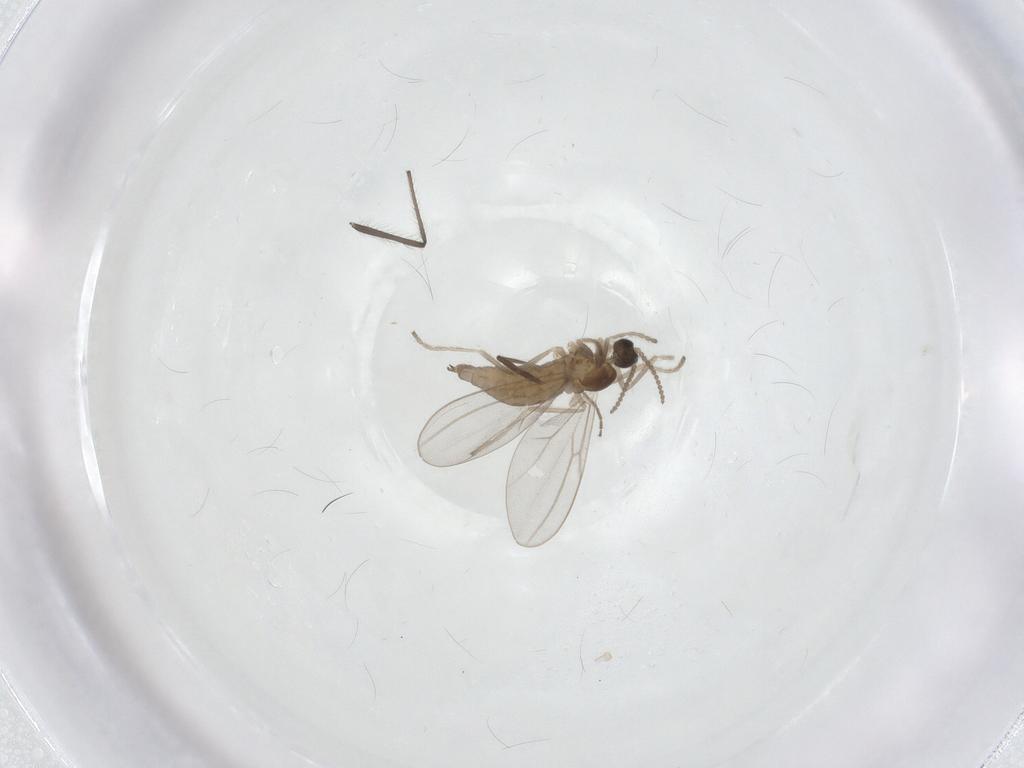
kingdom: Animalia
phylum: Arthropoda
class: Insecta
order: Diptera
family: Cecidomyiidae
